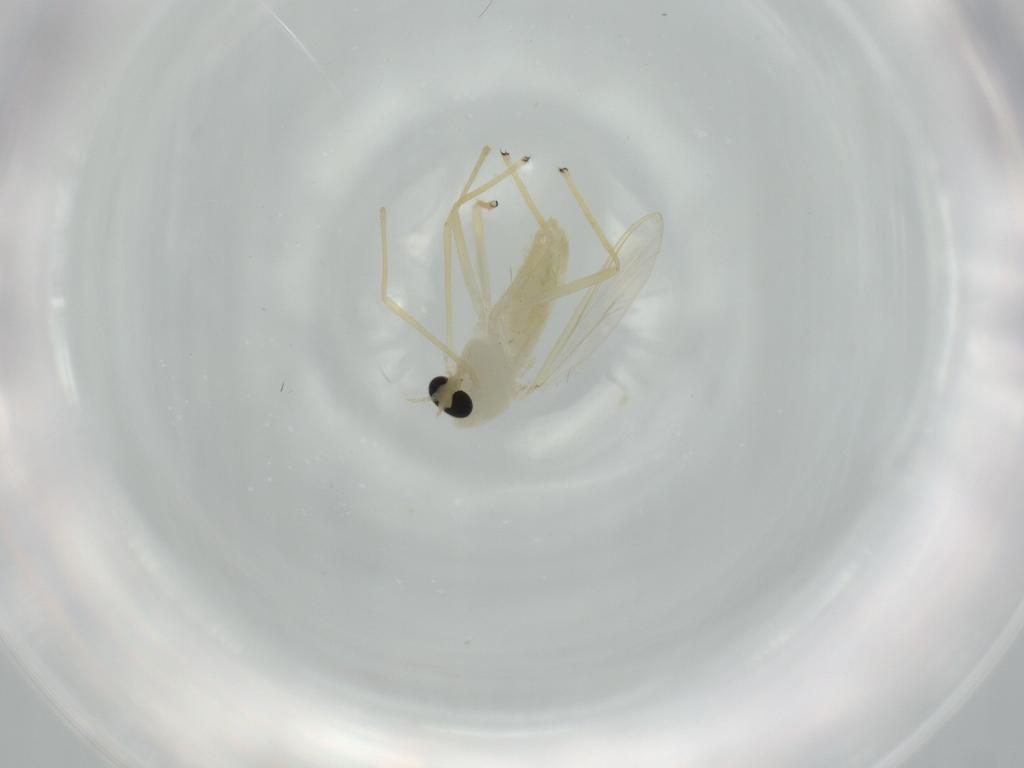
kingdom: Animalia
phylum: Arthropoda
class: Insecta
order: Diptera
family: Chironomidae
